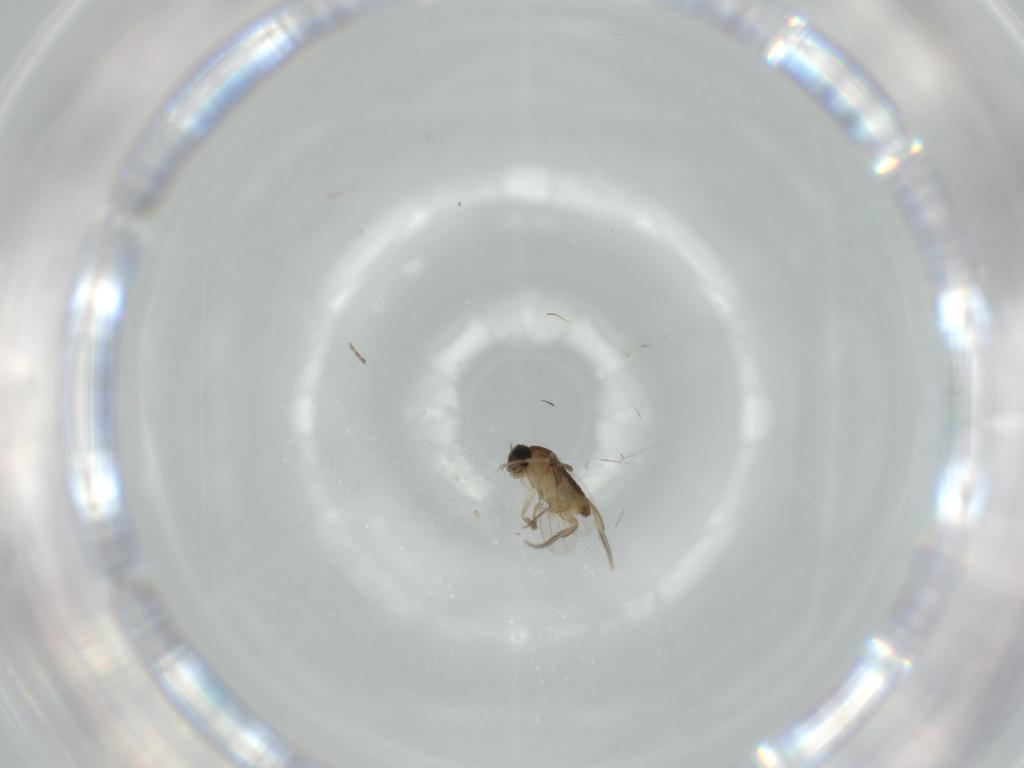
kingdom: Animalia
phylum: Arthropoda
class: Insecta
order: Diptera
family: Phoridae
